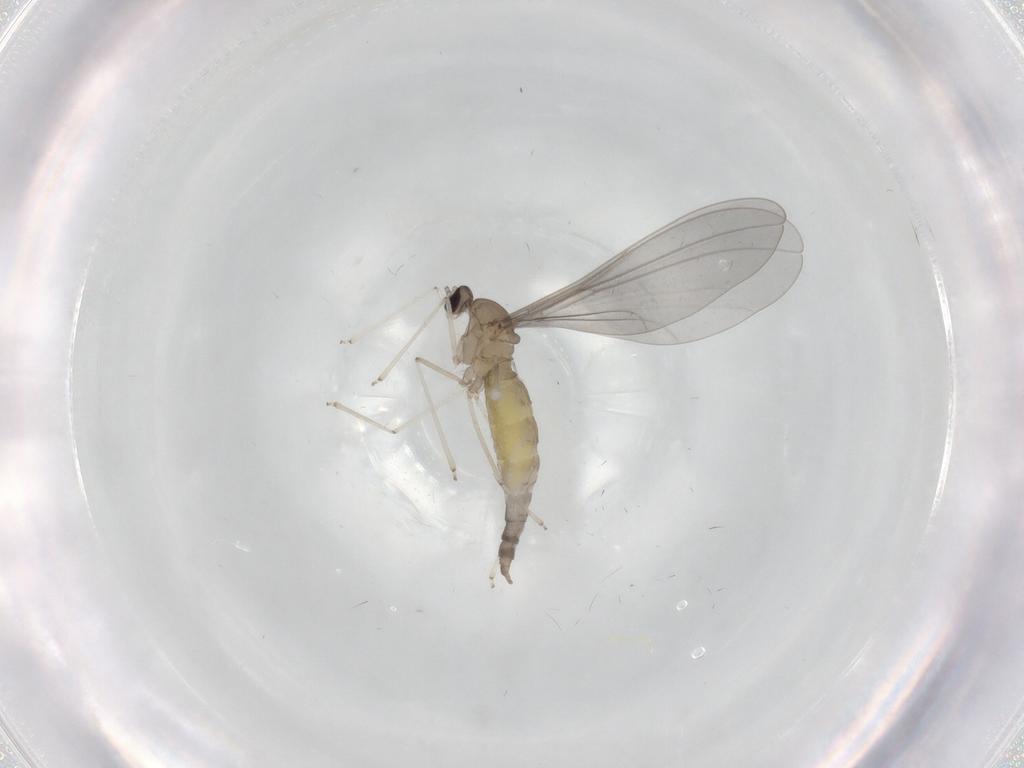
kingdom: Animalia
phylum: Arthropoda
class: Insecta
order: Diptera
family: Cecidomyiidae
